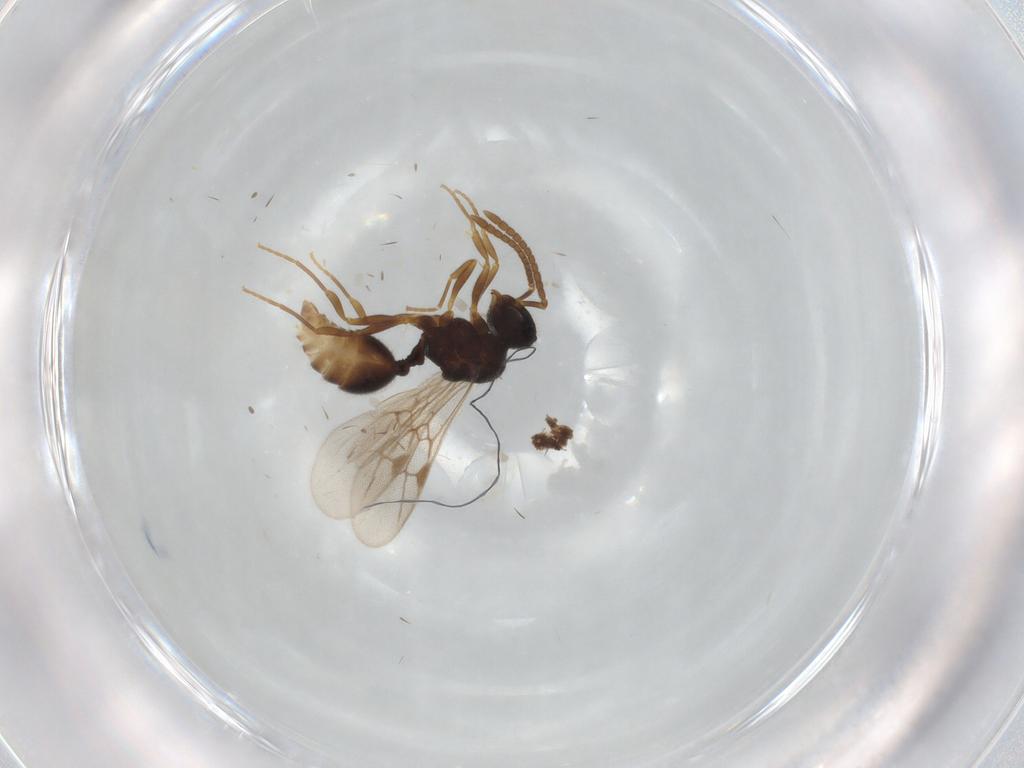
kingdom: Animalia
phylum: Arthropoda
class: Insecta
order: Hymenoptera
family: Formicidae
